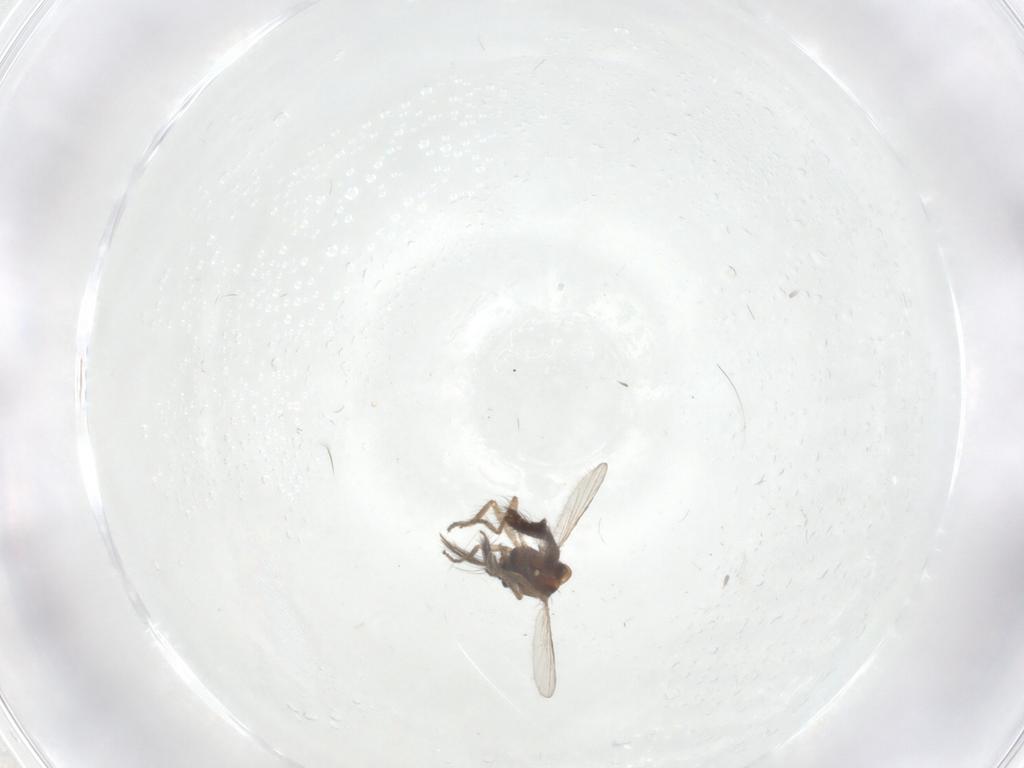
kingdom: Animalia
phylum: Arthropoda
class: Insecta
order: Diptera
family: Ceratopogonidae
